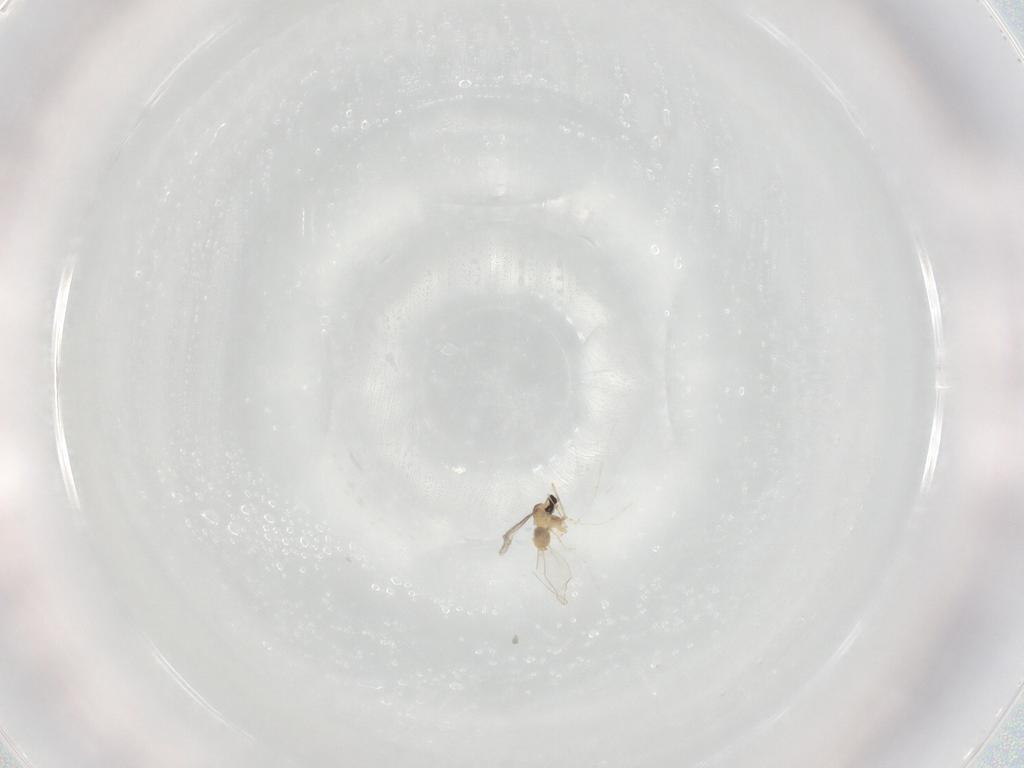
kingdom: Animalia
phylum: Arthropoda
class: Insecta
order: Diptera
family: Cecidomyiidae
